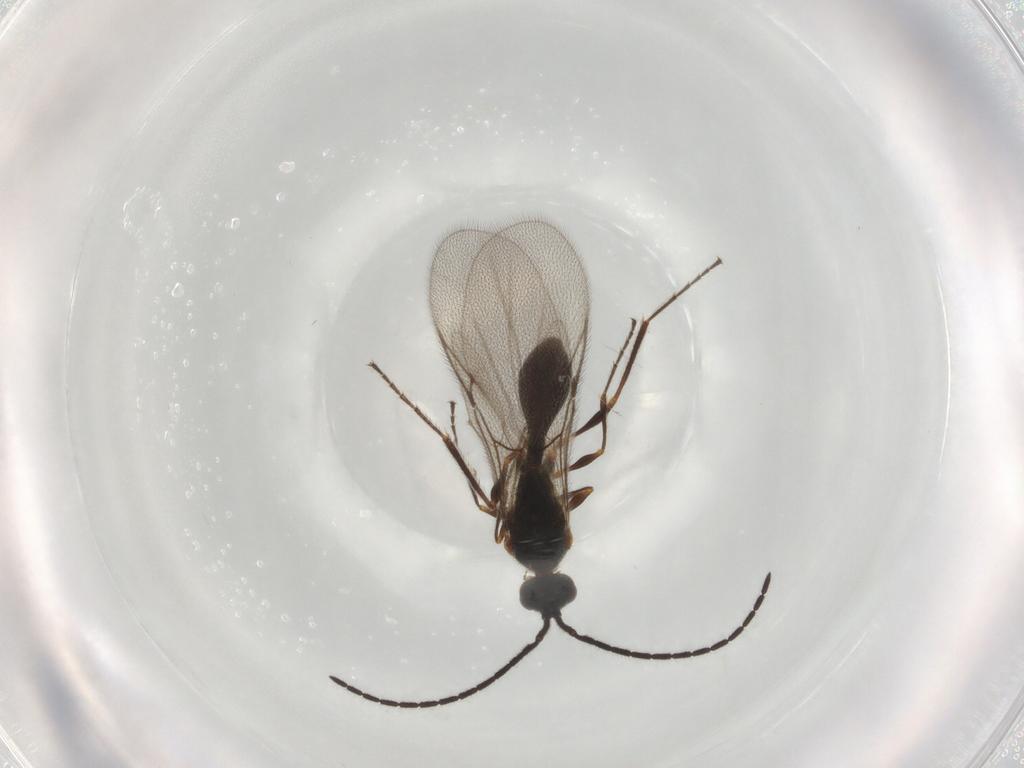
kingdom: Animalia
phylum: Arthropoda
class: Insecta
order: Hymenoptera
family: Diapriidae
